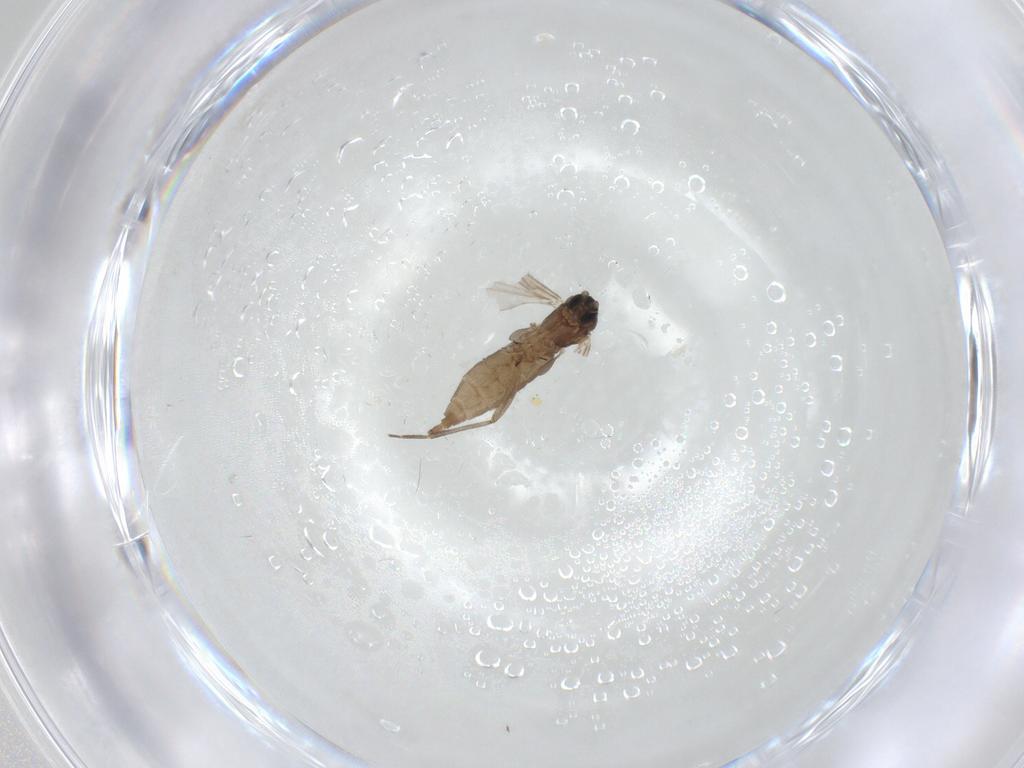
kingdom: Animalia
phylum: Arthropoda
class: Insecta
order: Diptera
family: Sciaridae
